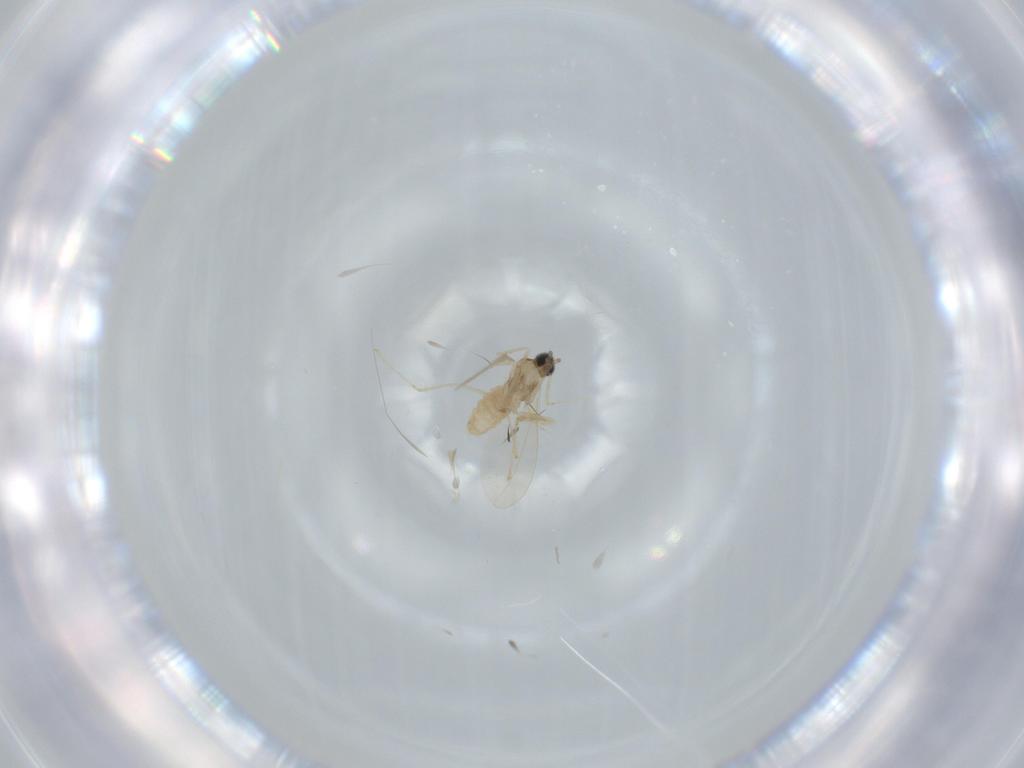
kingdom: Animalia
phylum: Arthropoda
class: Insecta
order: Diptera
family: Cecidomyiidae
